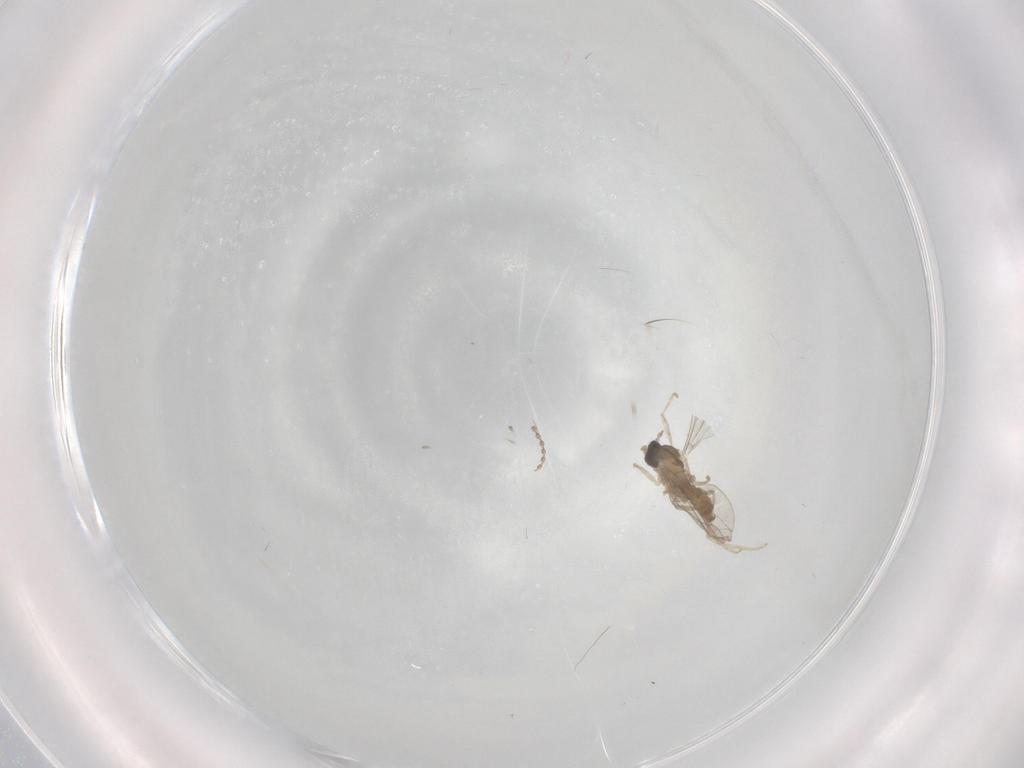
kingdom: Animalia
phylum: Arthropoda
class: Insecta
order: Diptera
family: Cecidomyiidae
